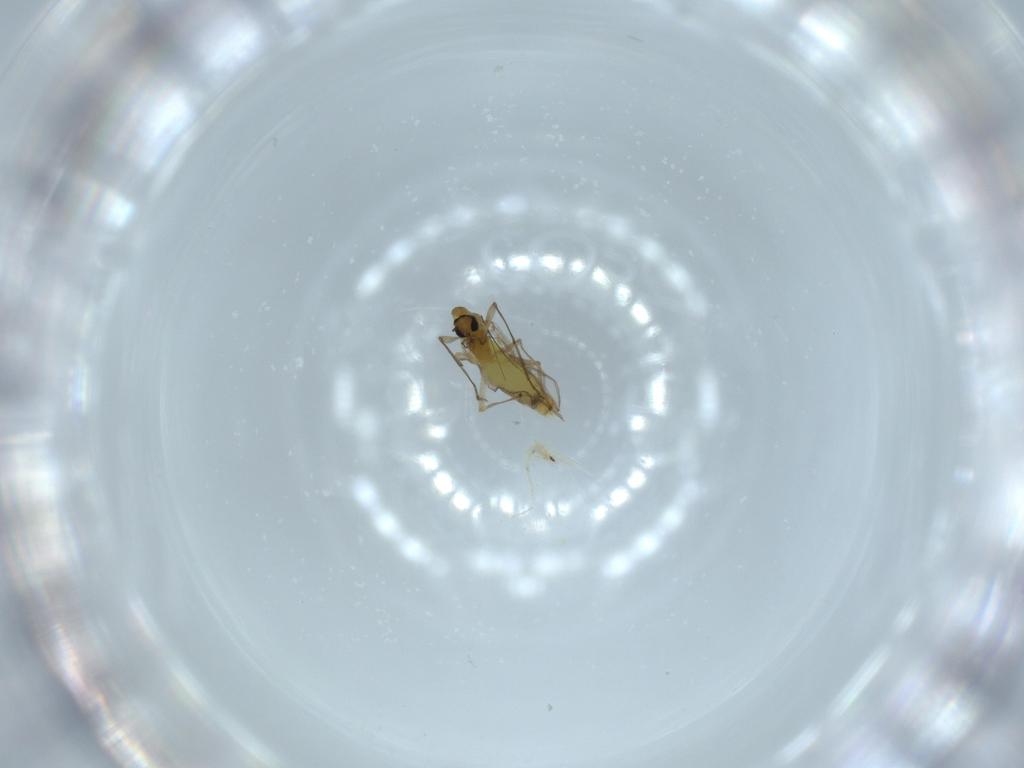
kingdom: Animalia
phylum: Arthropoda
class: Insecta
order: Diptera
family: Chironomidae
